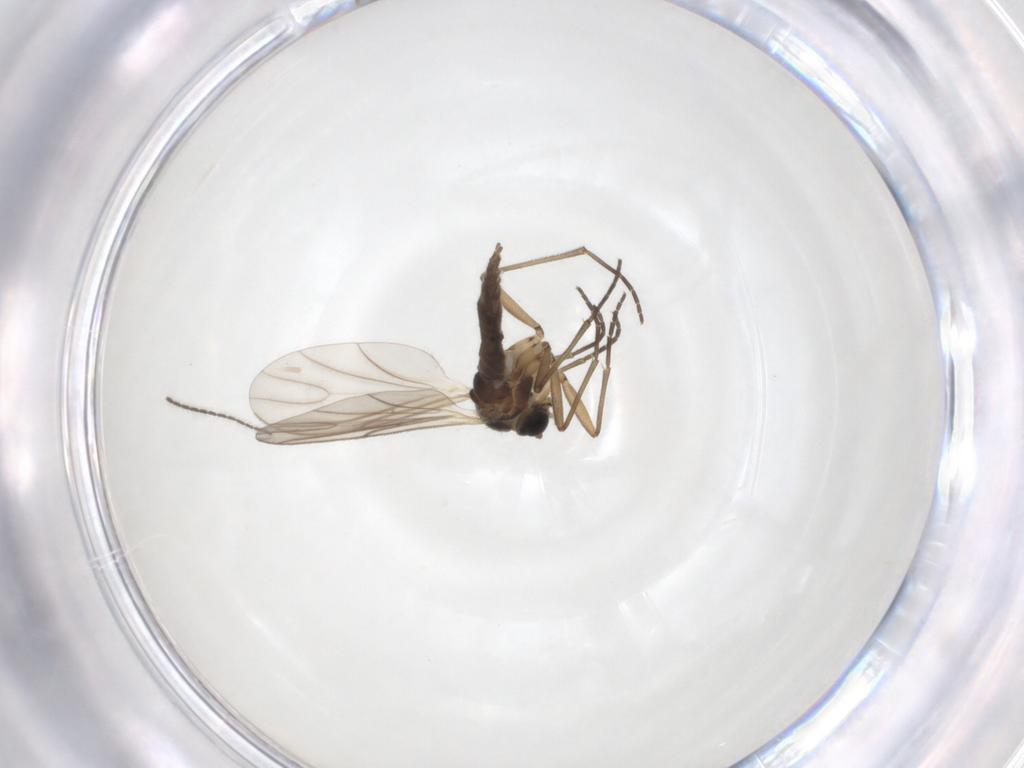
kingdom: Animalia
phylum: Arthropoda
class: Insecta
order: Diptera
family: Sciaridae
